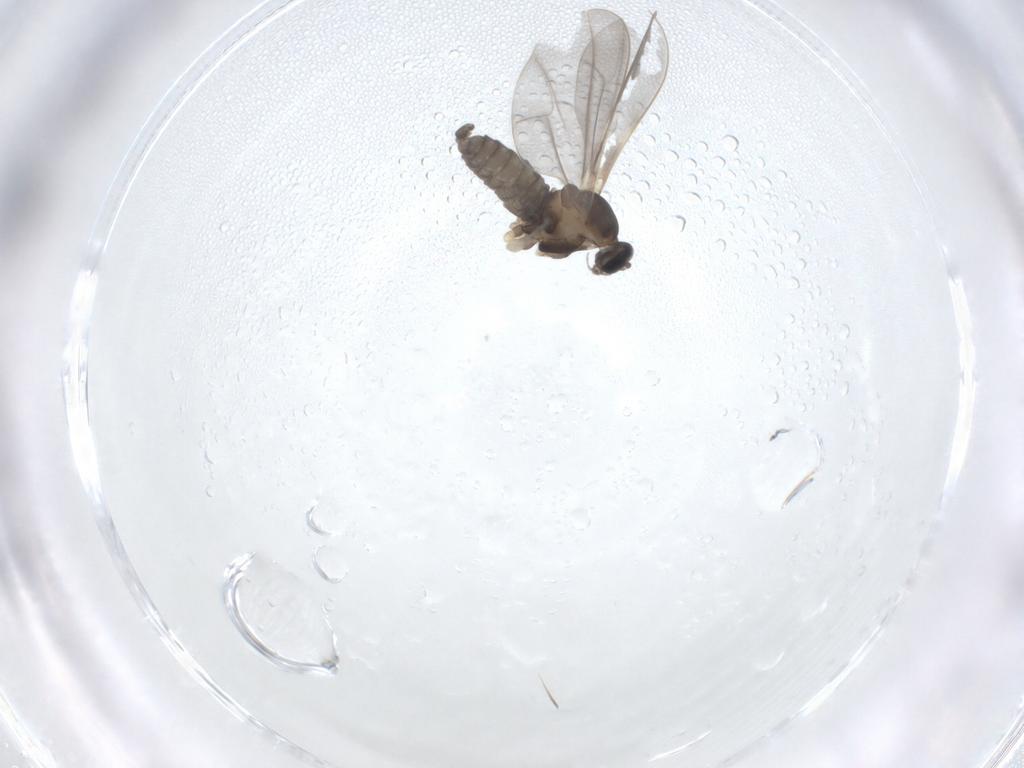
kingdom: Animalia
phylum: Arthropoda
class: Insecta
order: Diptera
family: Cecidomyiidae
